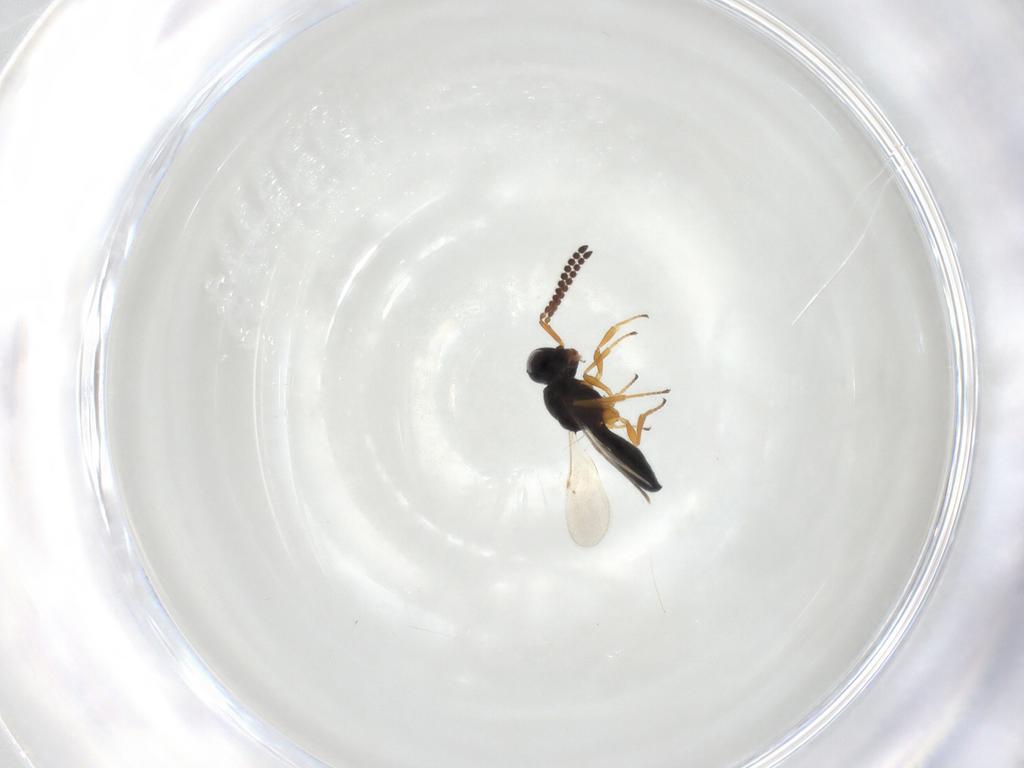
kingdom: Animalia
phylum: Arthropoda
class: Insecta
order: Hymenoptera
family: Scelionidae
